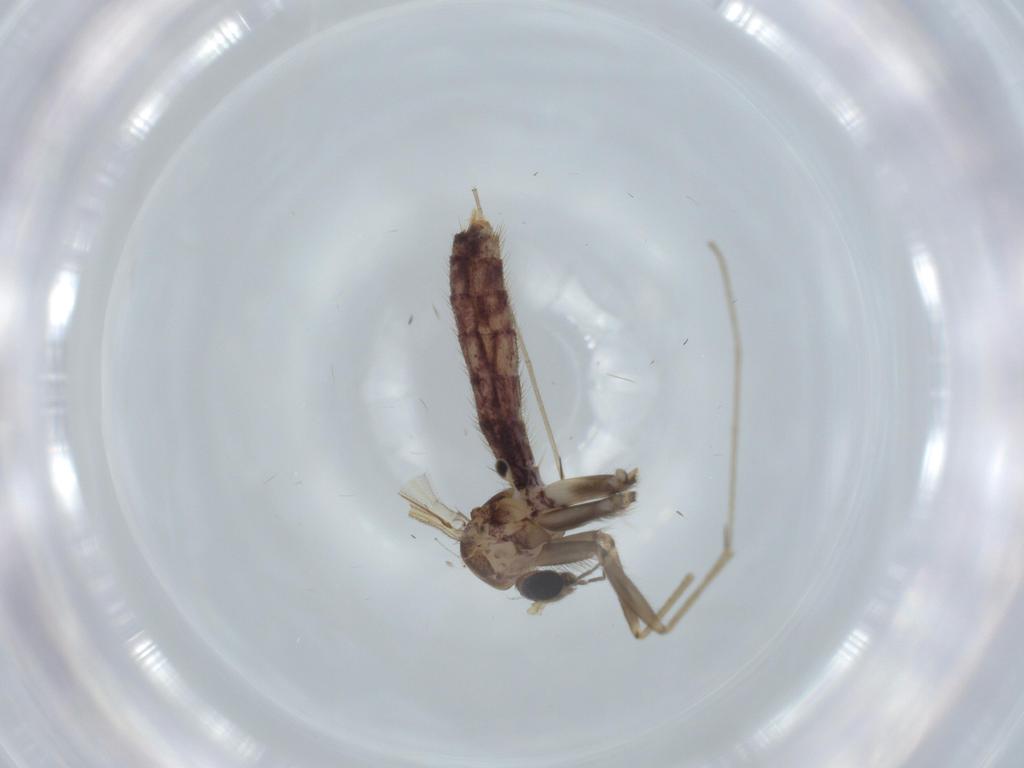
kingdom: Animalia
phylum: Arthropoda
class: Insecta
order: Diptera
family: Mycetophilidae
